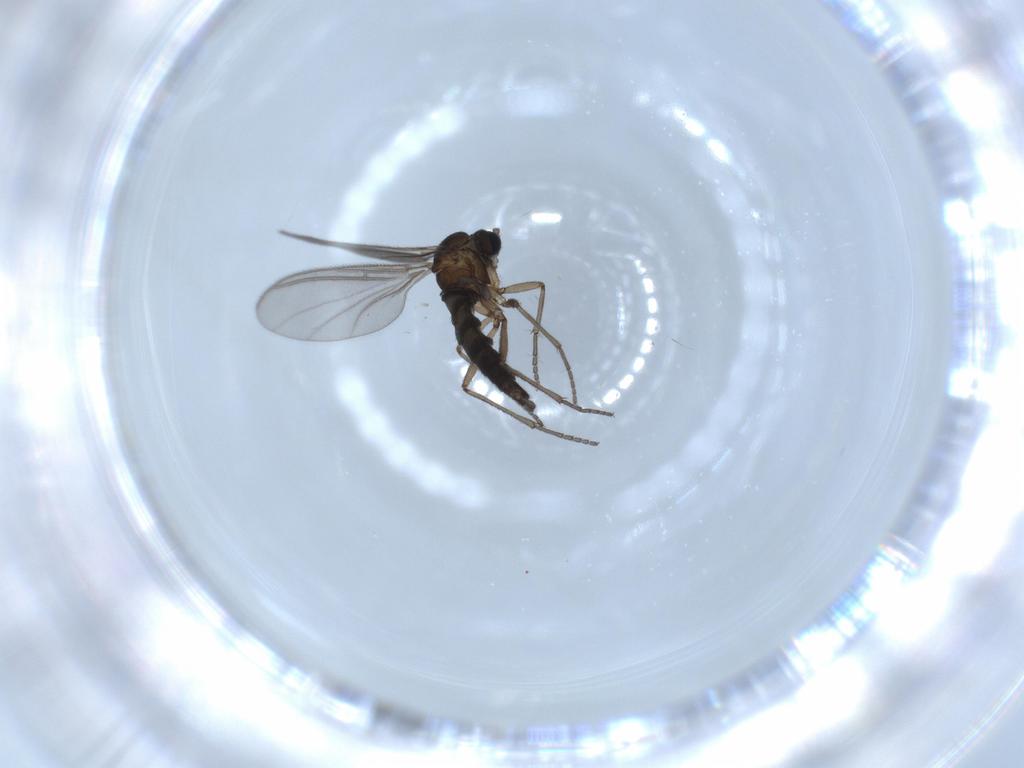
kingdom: Animalia
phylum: Arthropoda
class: Insecta
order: Diptera
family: Sciaridae
